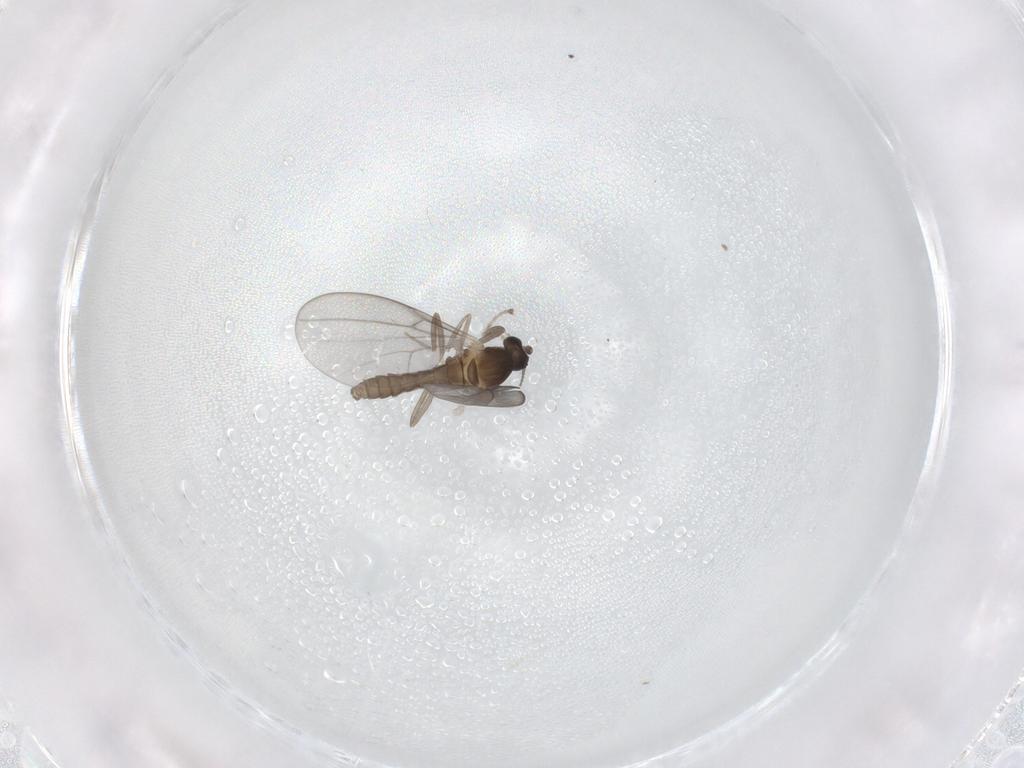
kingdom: Animalia
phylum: Arthropoda
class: Insecta
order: Diptera
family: Cecidomyiidae
